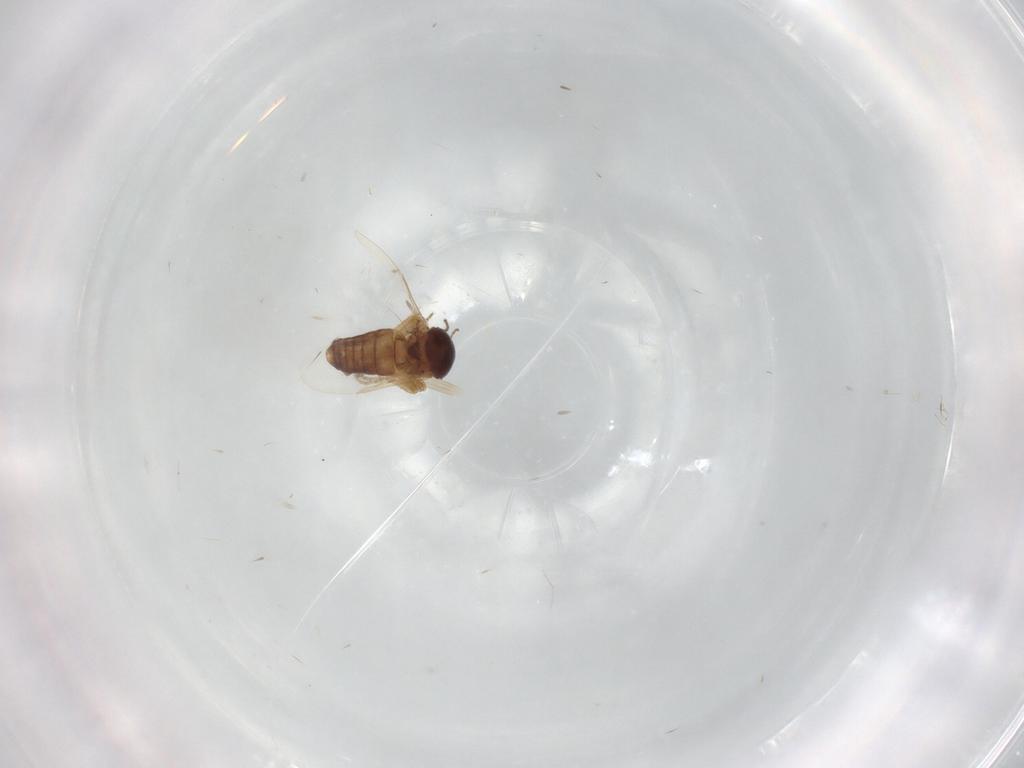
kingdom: Animalia
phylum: Arthropoda
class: Insecta
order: Diptera
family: Ceratopogonidae
